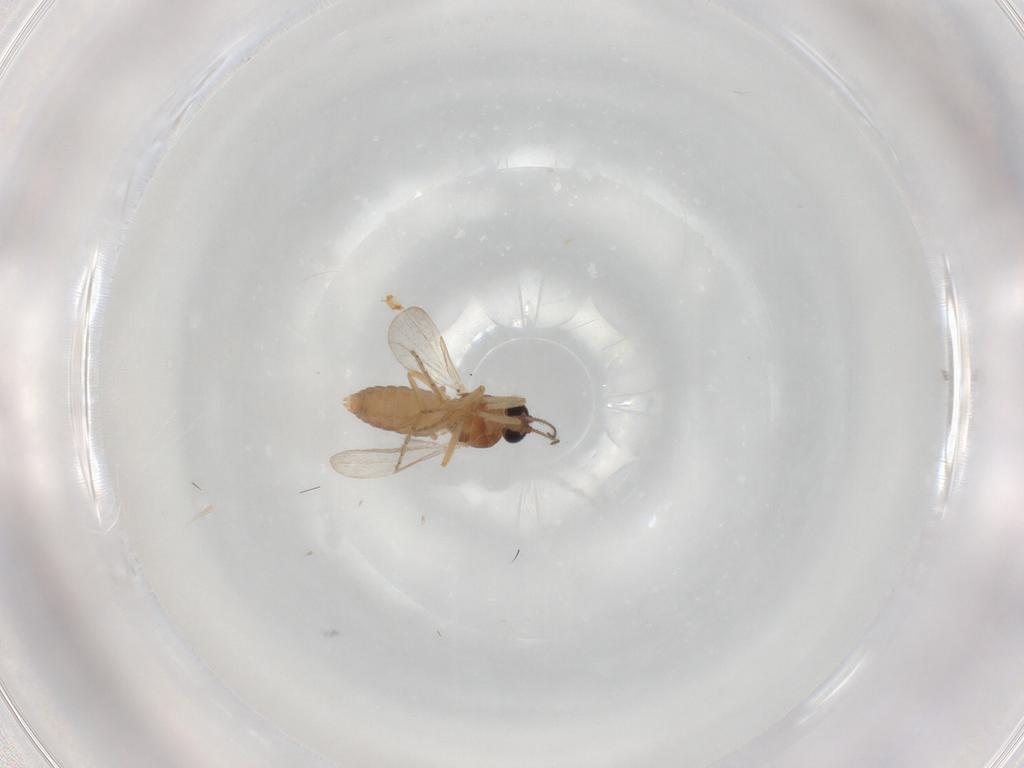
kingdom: Animalia
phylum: Arthropoda
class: Insecta
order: Diptera
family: Ceratopogonidae
